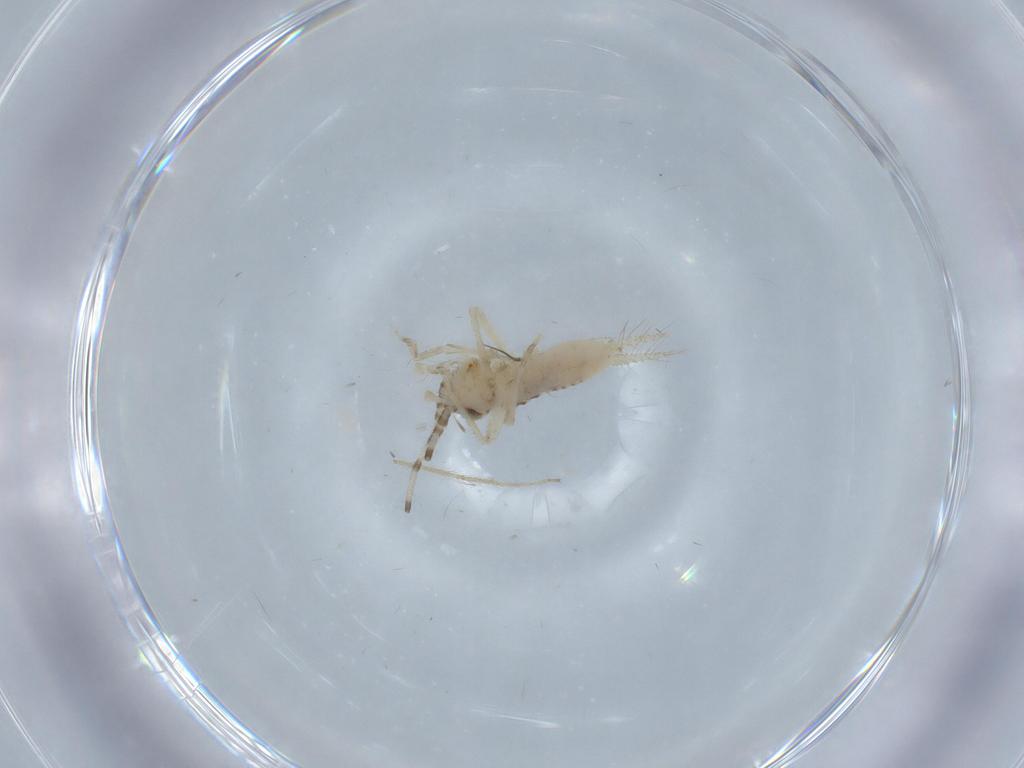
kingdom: Animalia
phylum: Arthropoda
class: Insecta
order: Orthoptera
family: Trigonidiidae
